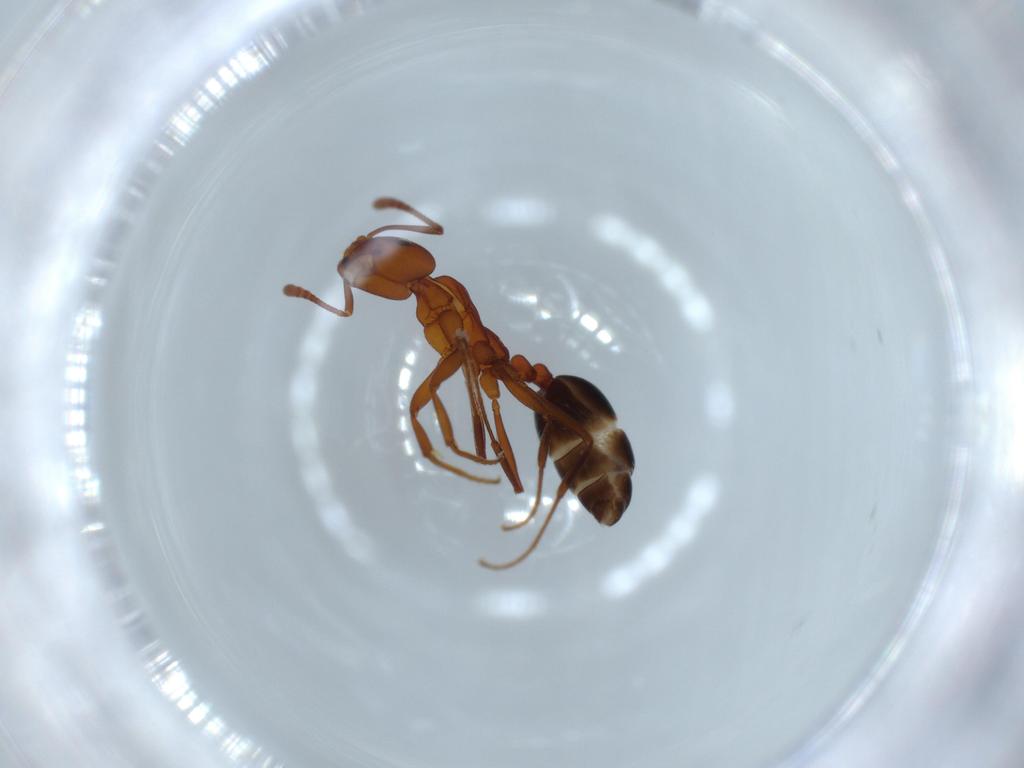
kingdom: Animalia
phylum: Arthropoda
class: Insecta
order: Hymenoptera
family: Formicidae
